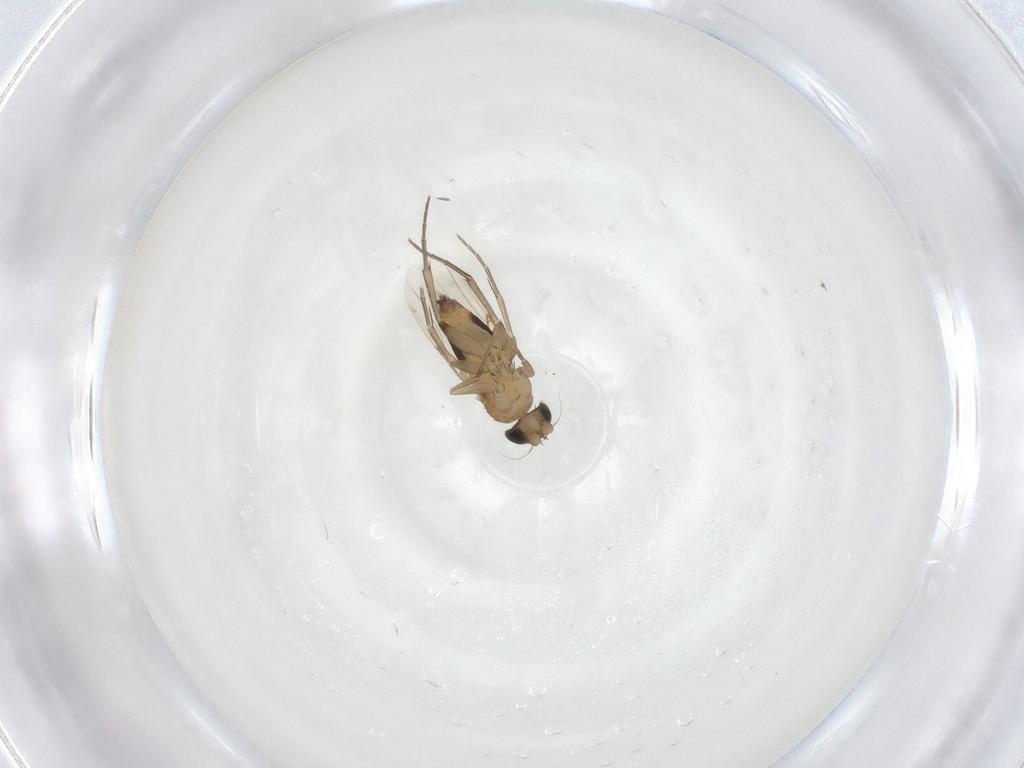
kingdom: Animalia
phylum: Arthropoda
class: Insecta
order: Diptera
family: Phoridae
